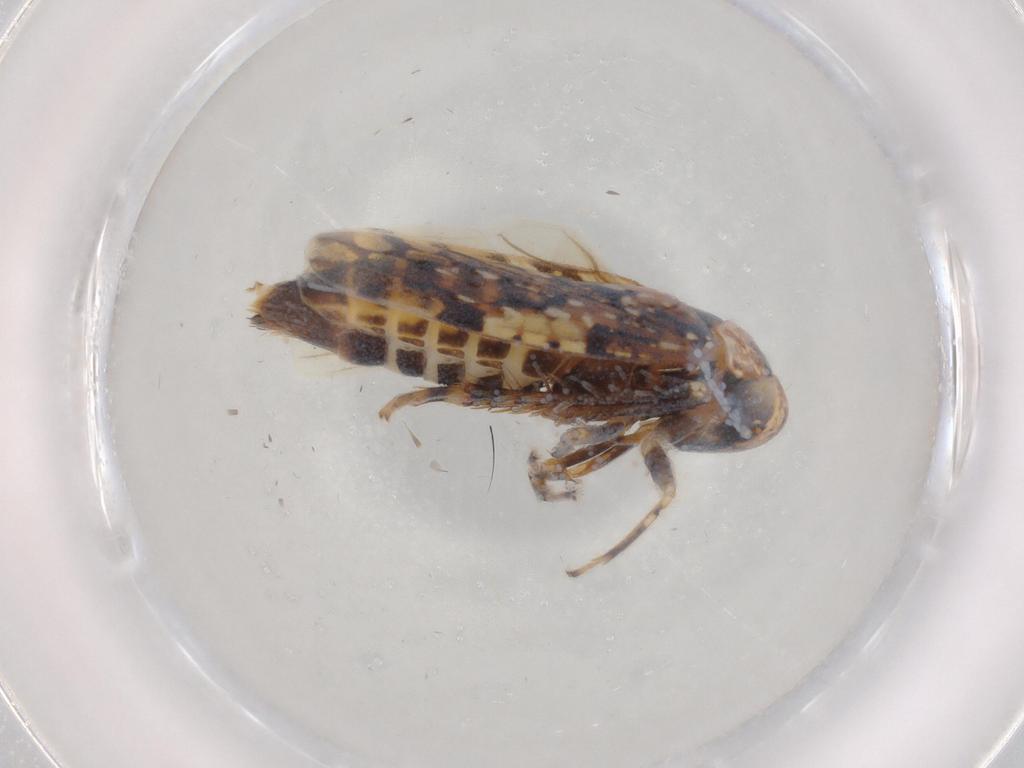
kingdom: Animalia
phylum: Arthropoda
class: Insecta
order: Hemiptera
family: Cicadellidae
